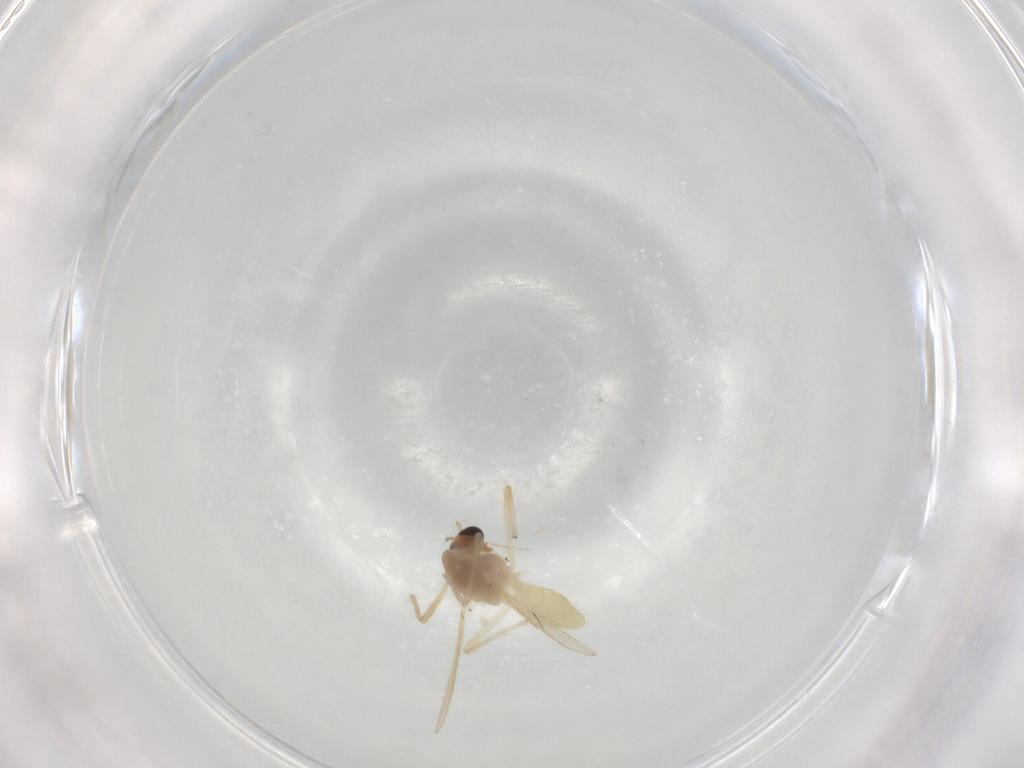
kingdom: Animalia
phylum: Arthropoda
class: Insecta
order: Diptera
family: Chironomidae
